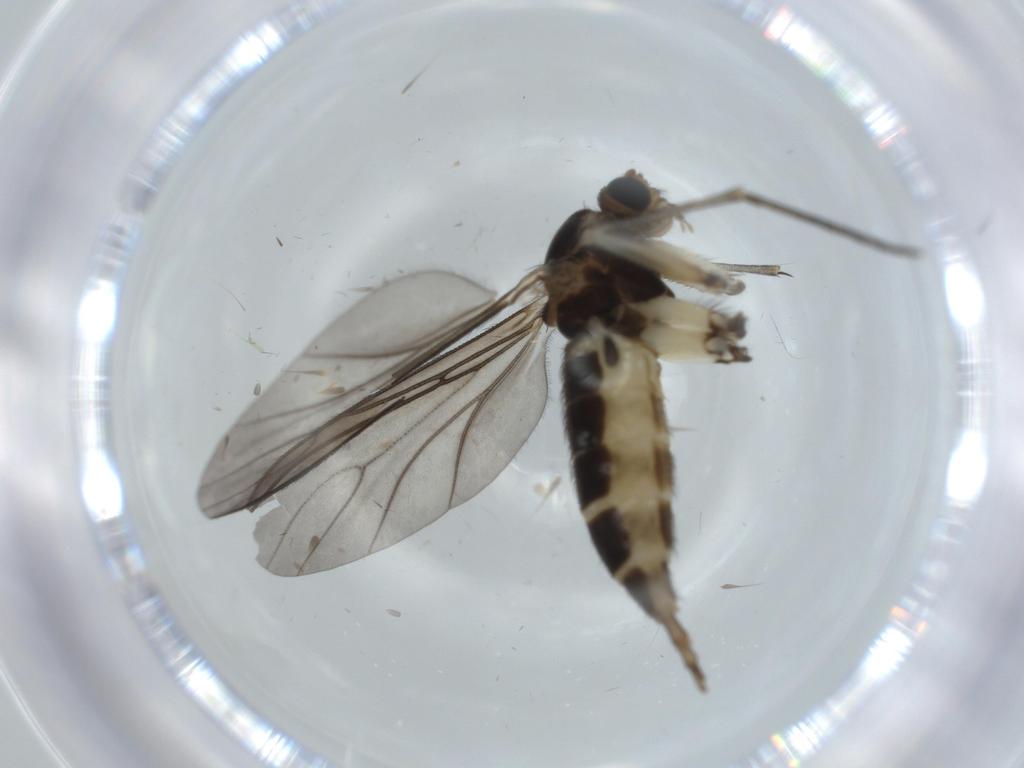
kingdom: Animalia
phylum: Arthropoda
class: Insecta
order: Diptera
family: Sciaridae
